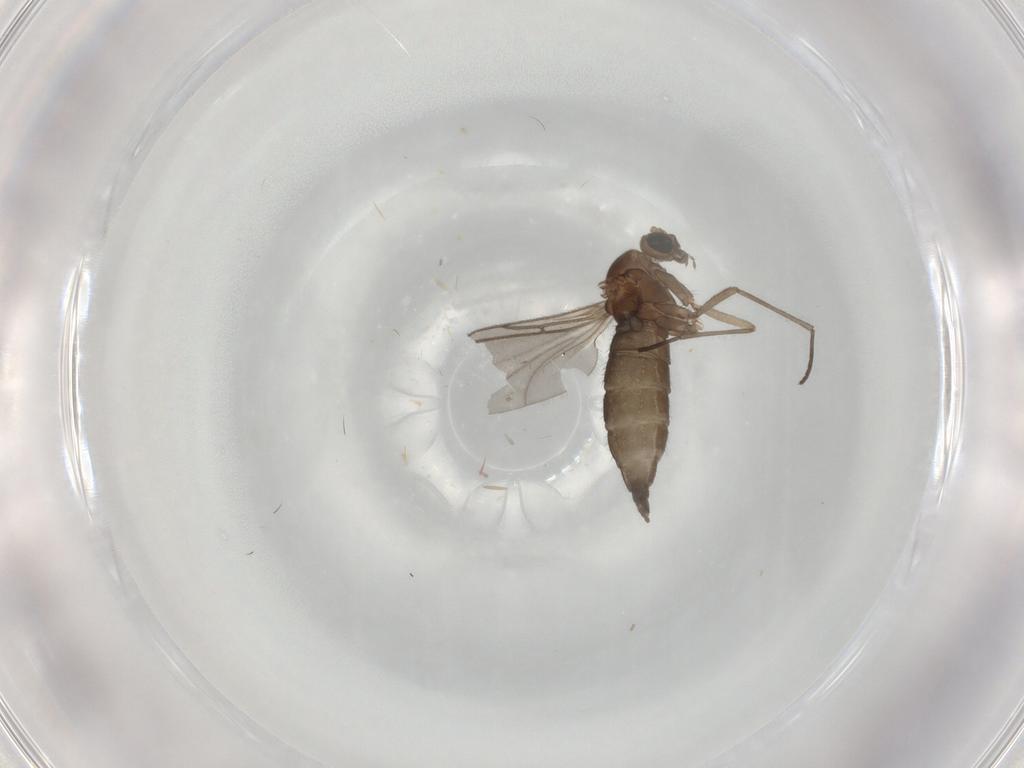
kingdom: Animalia
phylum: Arthropoda
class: Insecta
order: Diptera
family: Sciaridae
